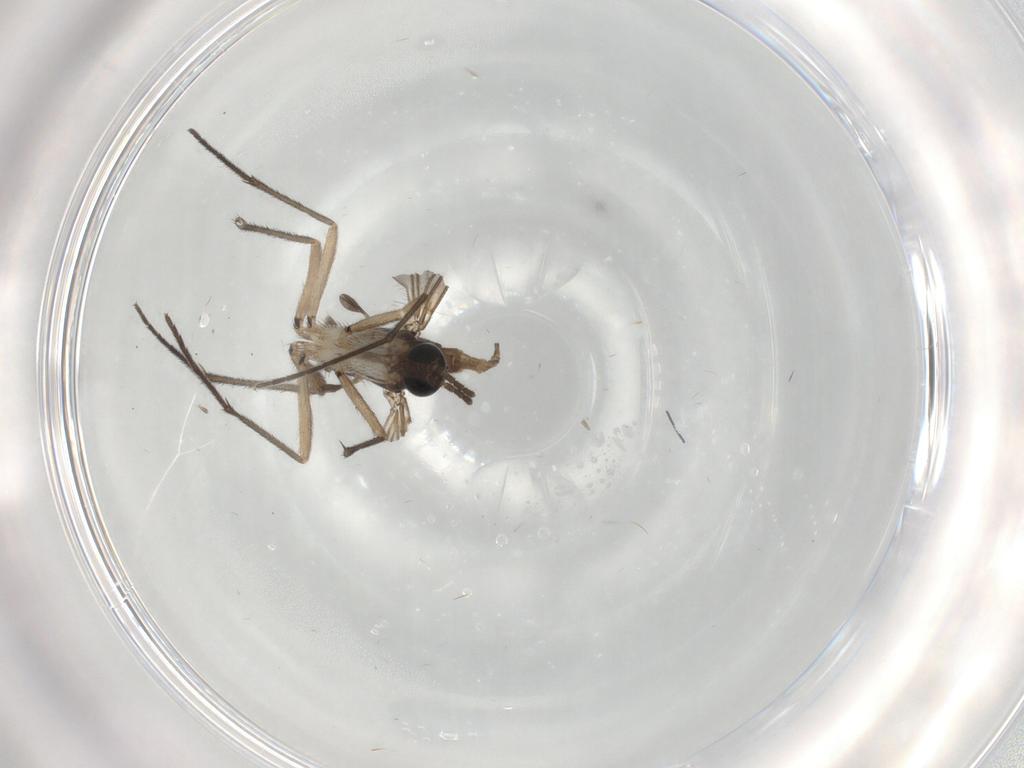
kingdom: Animalia
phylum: Arthropoda
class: Insecta
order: Diptera
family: Sciaridae
